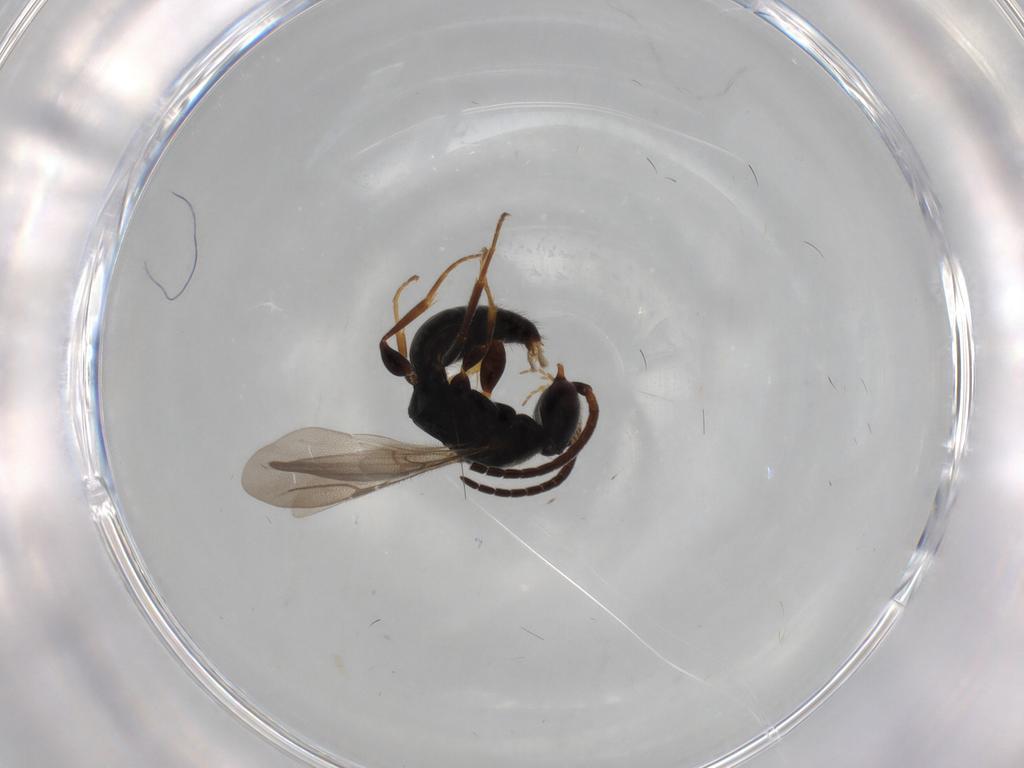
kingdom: Animalia
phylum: Arthropoda
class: Insecta
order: Hymenoptera
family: Bethylidae
